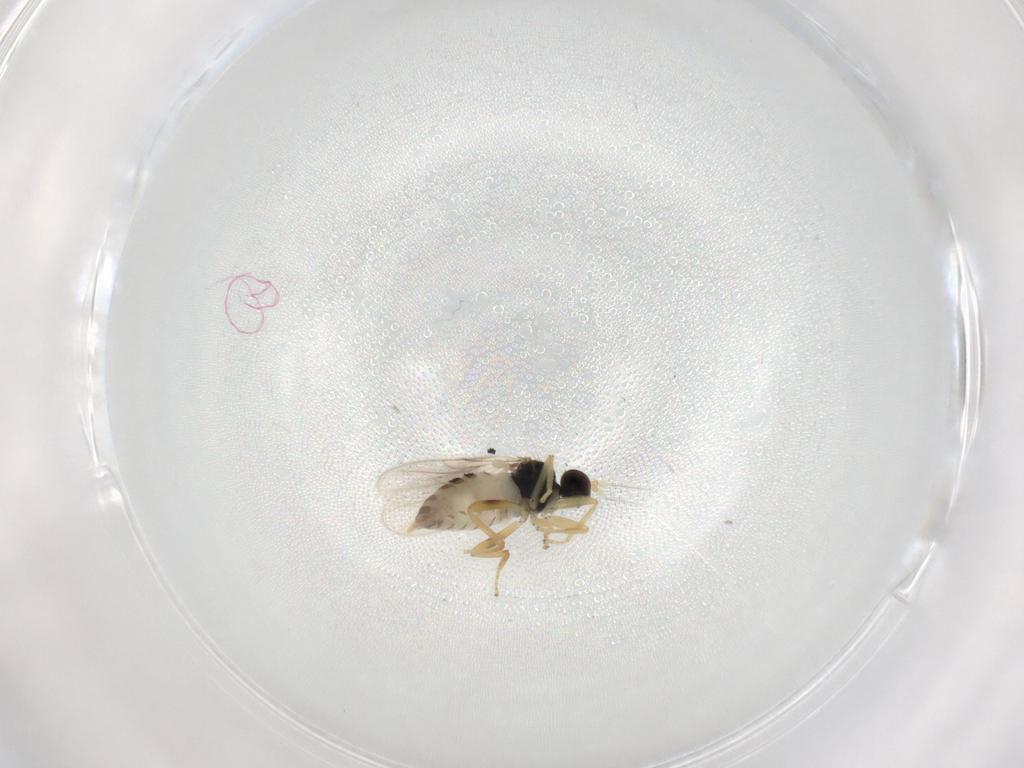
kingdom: Animalia
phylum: Arthropoda
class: Insecta
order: Diptera
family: Hybotidae
